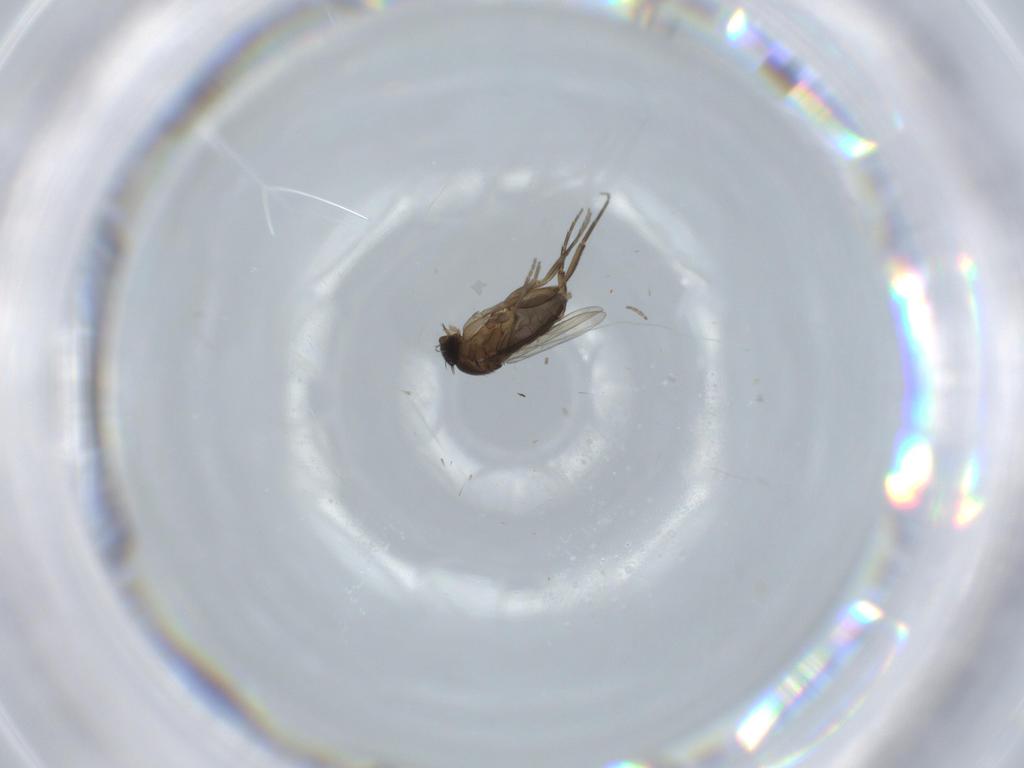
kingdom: Animalia
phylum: Arthropoda
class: Insecta
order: Diptera
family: Phoridae
